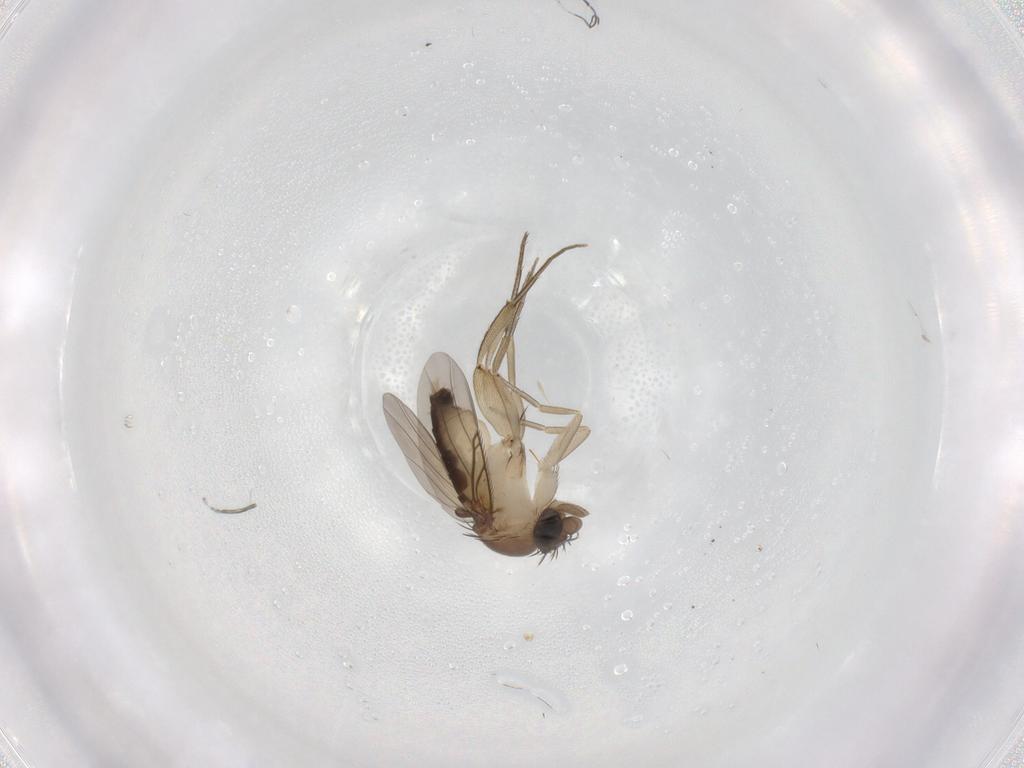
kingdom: Animalia
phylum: Arthropoda
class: Insecta
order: Diptera
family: Phoridae
